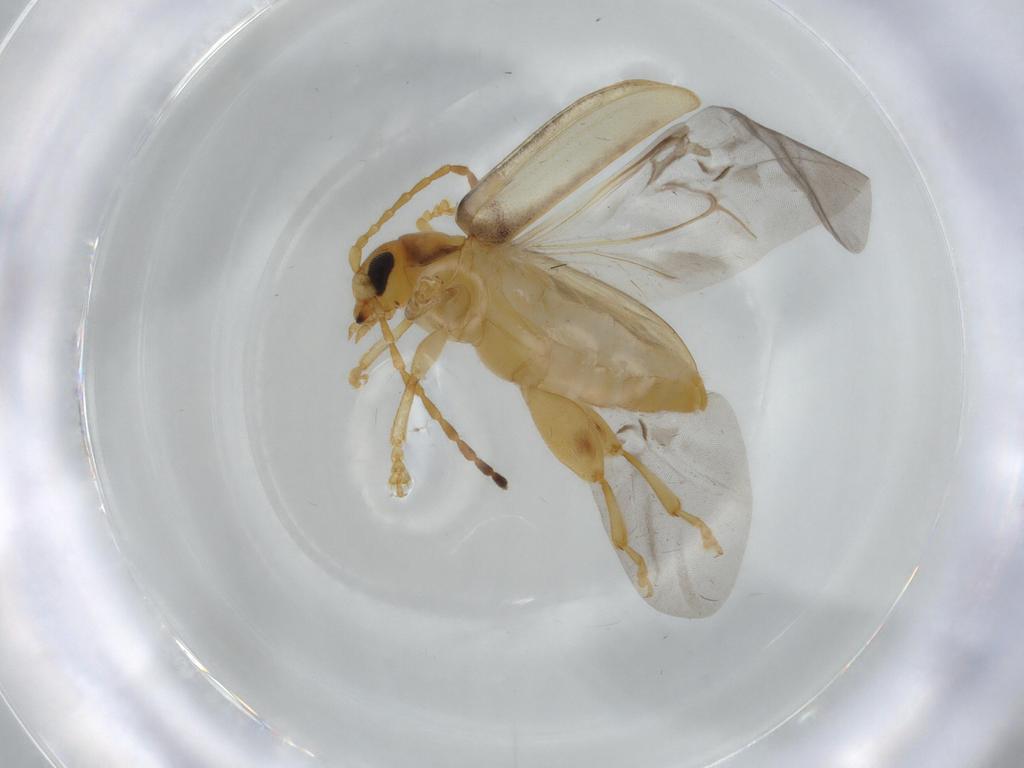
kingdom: Animalia
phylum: Arthropoda
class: Insecta
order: Coleoptera
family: Chrysomelidae
